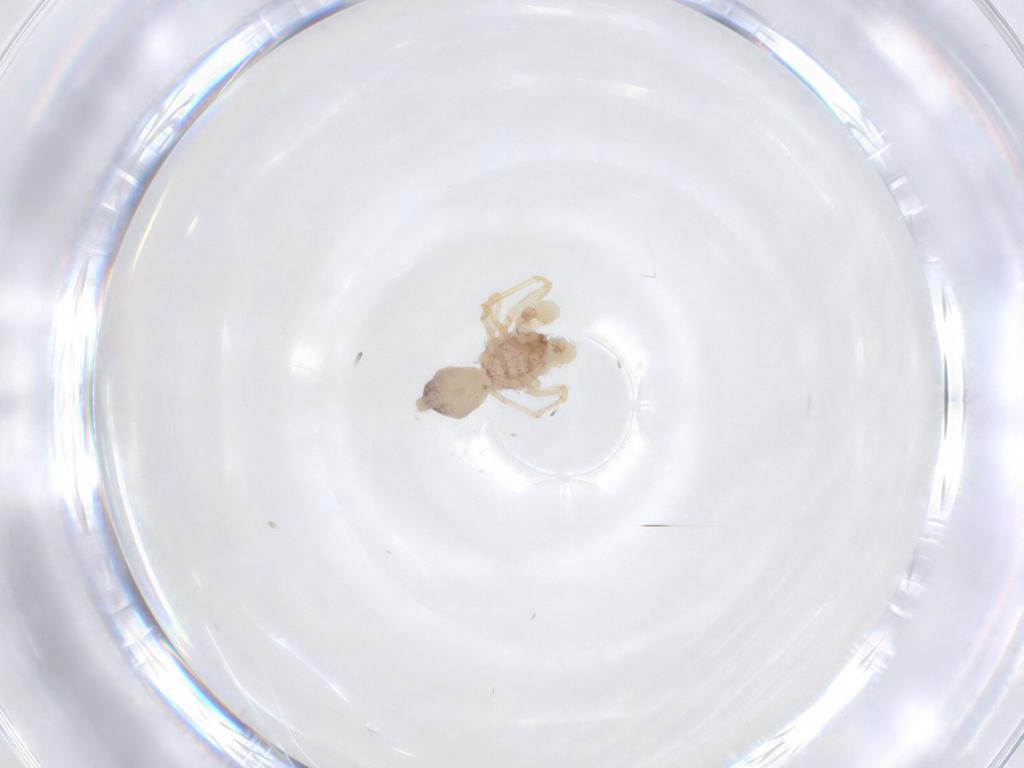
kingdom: Animalia
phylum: Arthropoda
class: Arachnida
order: Araneae
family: Idiopidae
